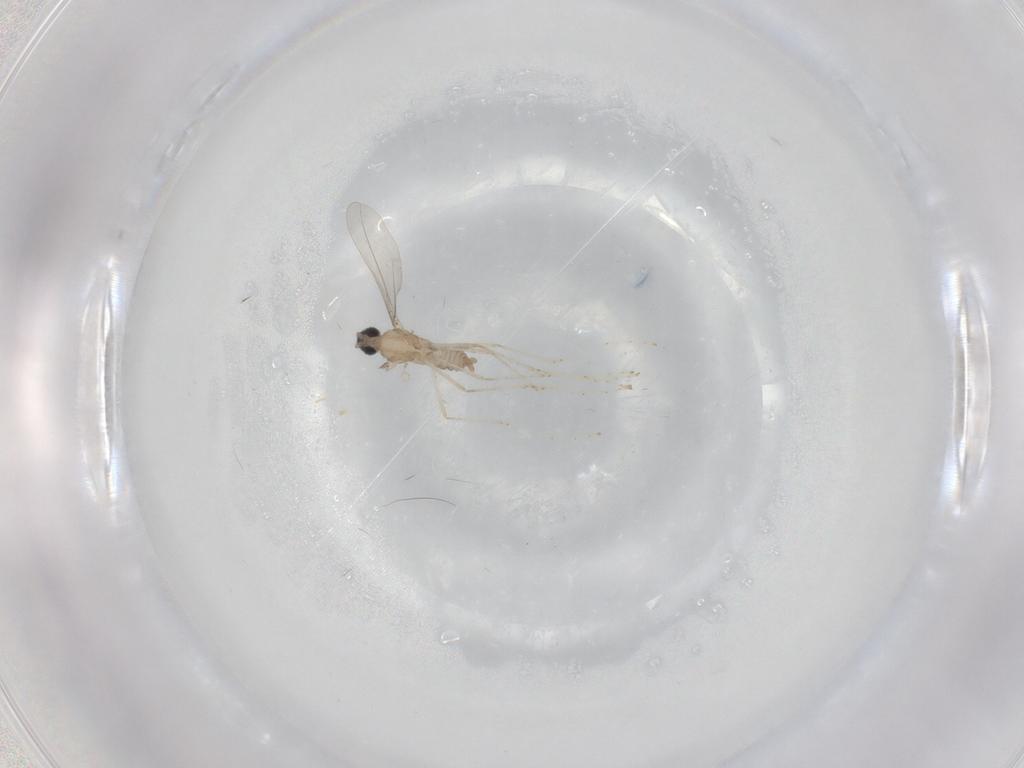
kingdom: Animalia
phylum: Arthropoda
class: Insecta
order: Diptera
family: Cecidomyiidae
